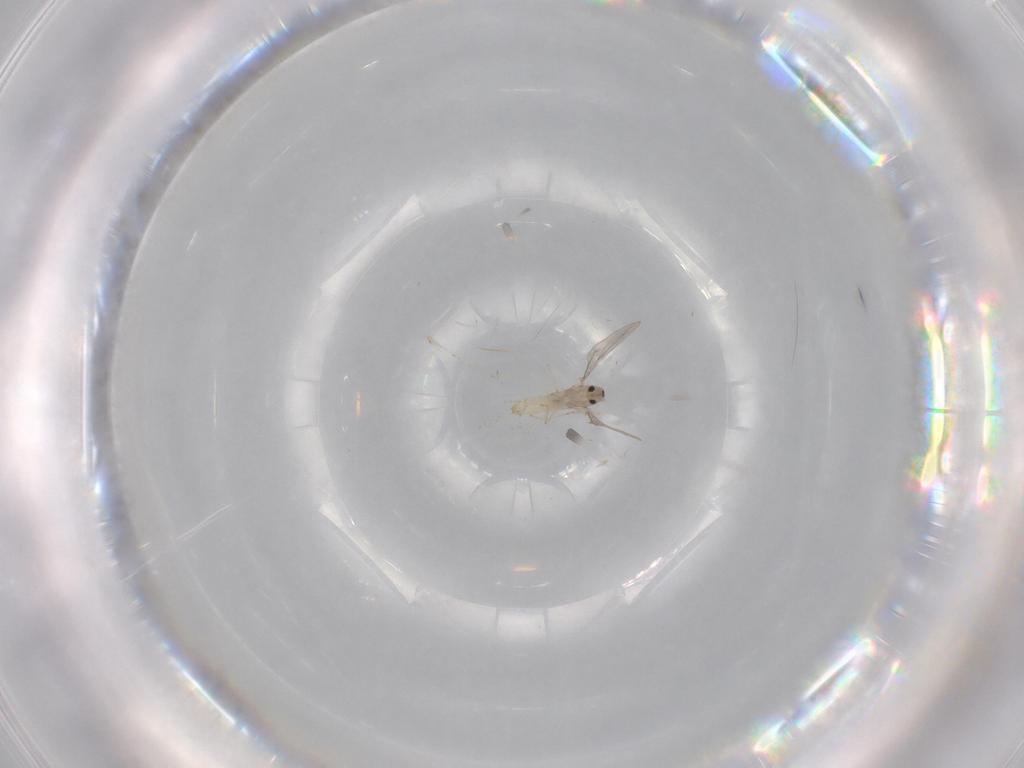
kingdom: Animalia
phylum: Arthropoda
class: Insecta
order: Diptera
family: Cecidomyiidae
